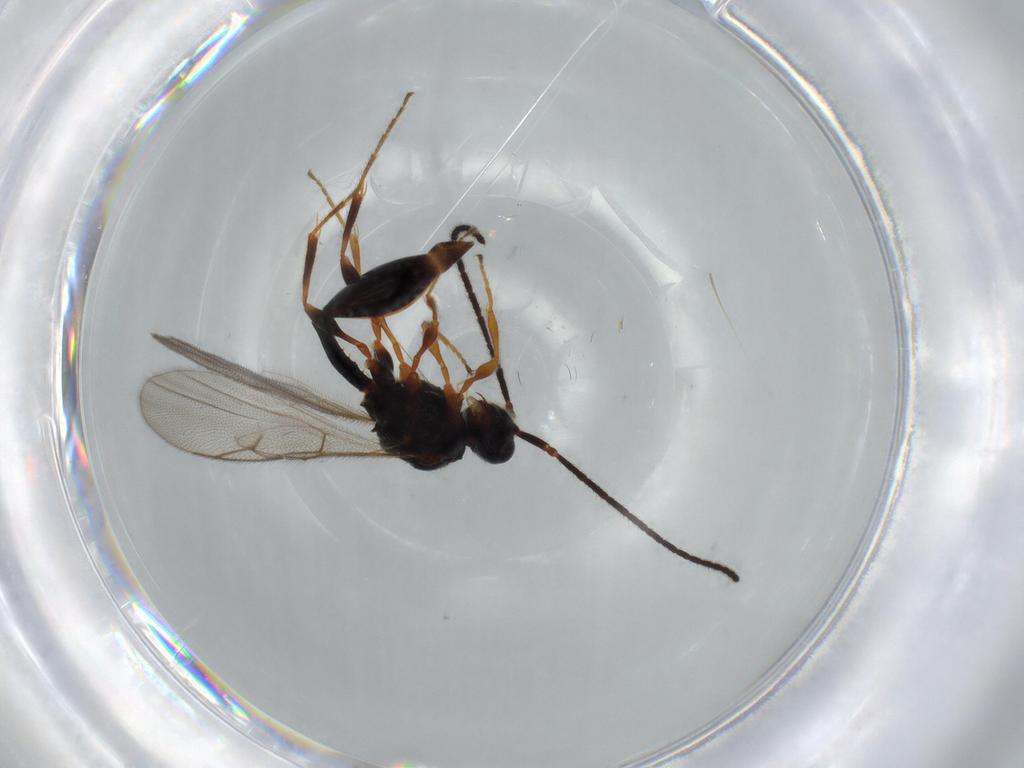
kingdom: Animalia
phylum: Arthropoda
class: Insecta
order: Hymenoptera
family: Diapriidae
